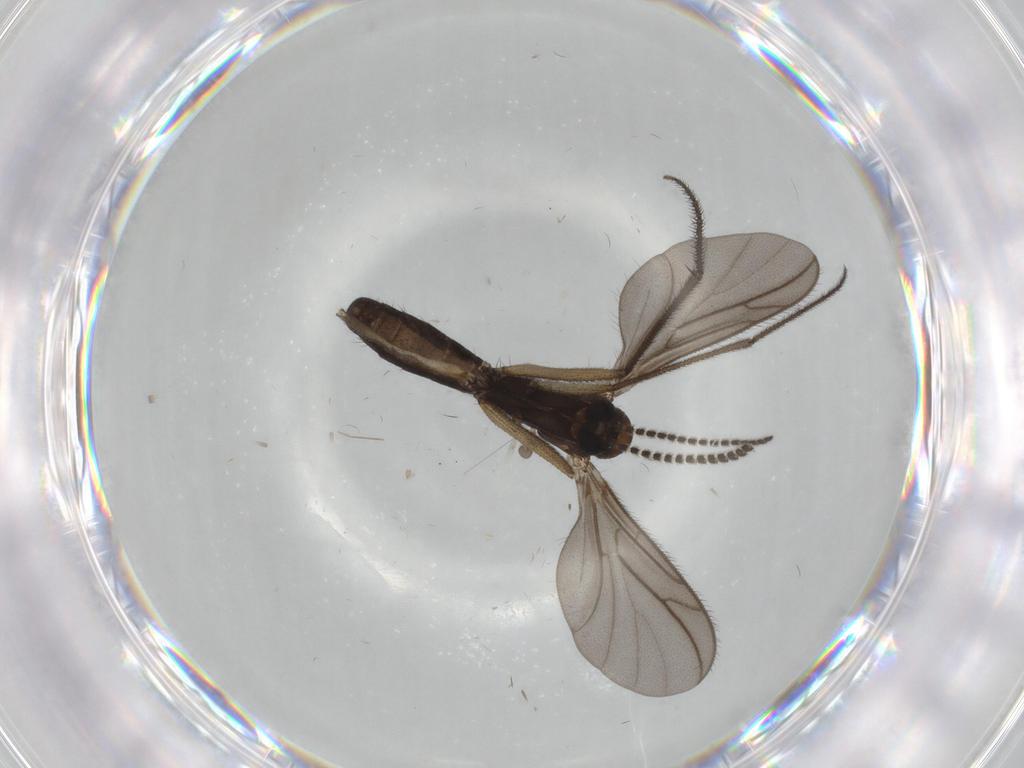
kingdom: Animalia
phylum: Arthropoda
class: Insecta
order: Diptera
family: Ditomyiidae
